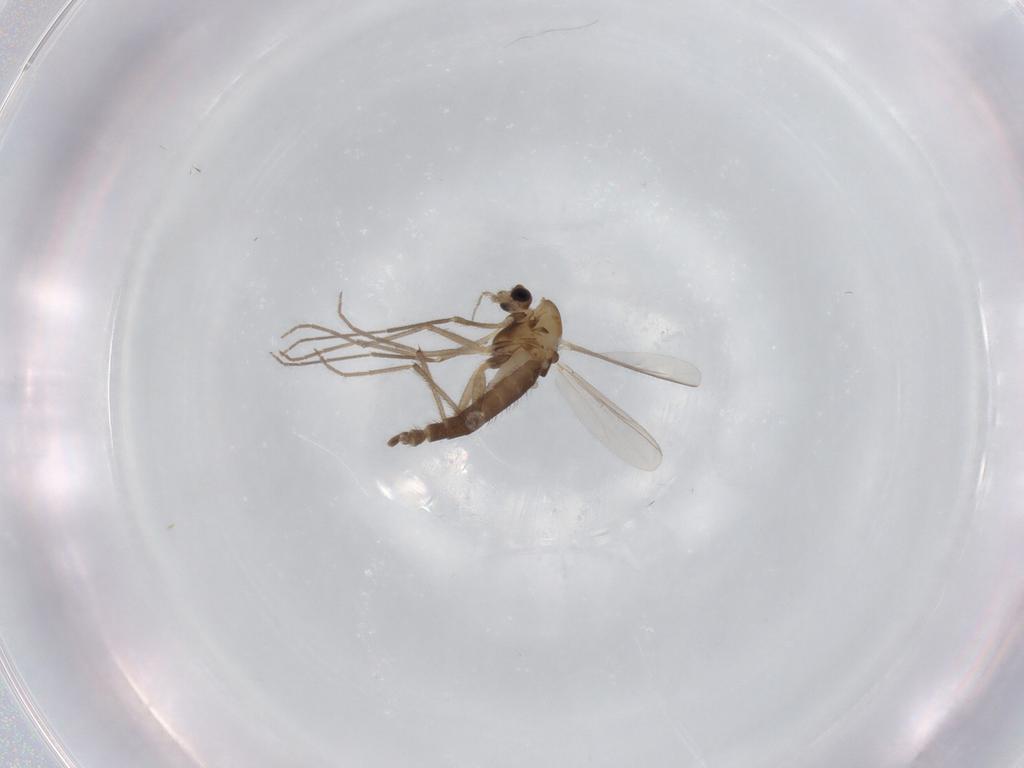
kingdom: Animalia
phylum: Arthropoda
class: Insecta
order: Diptera
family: Chironomidae
